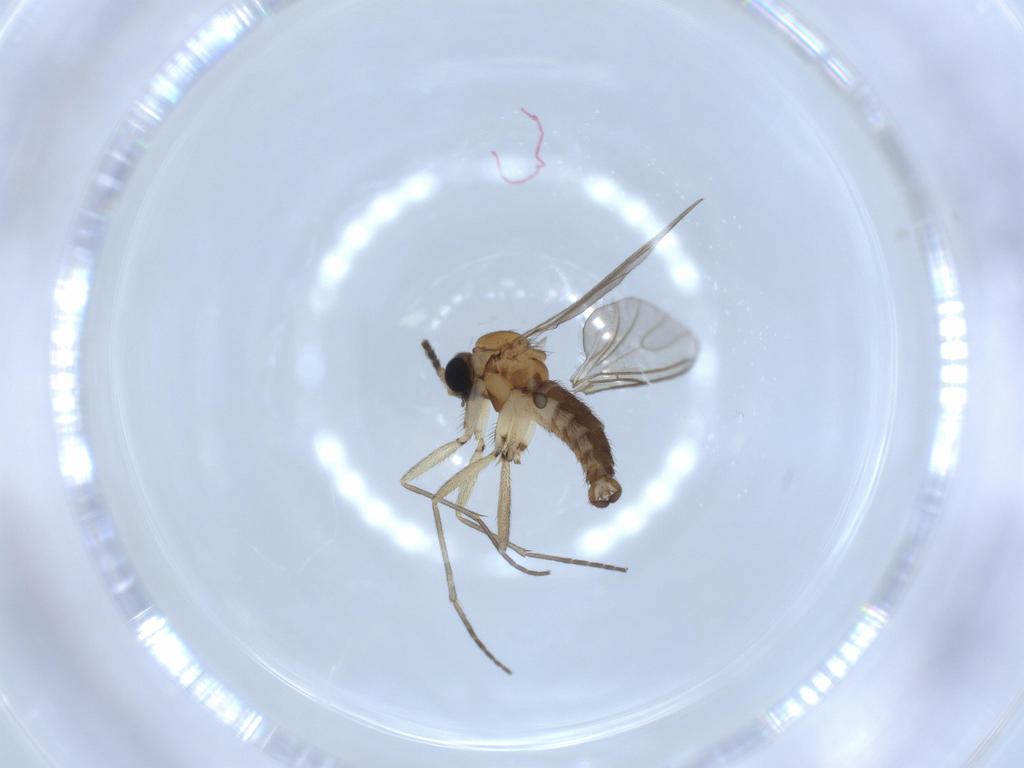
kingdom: Animalia
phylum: Arthropoda
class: Insecta
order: Diptera
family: Sciaridae
